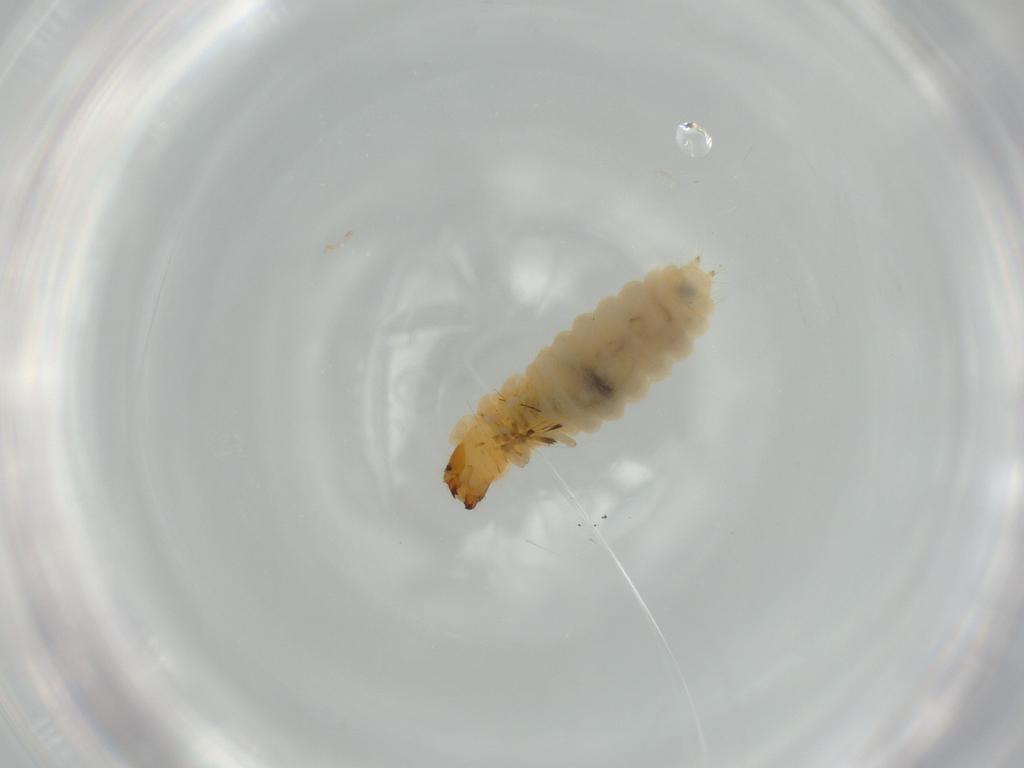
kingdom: Animalia
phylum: Arthropoda
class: Insecta
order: Coleoptera
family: Melyridae
